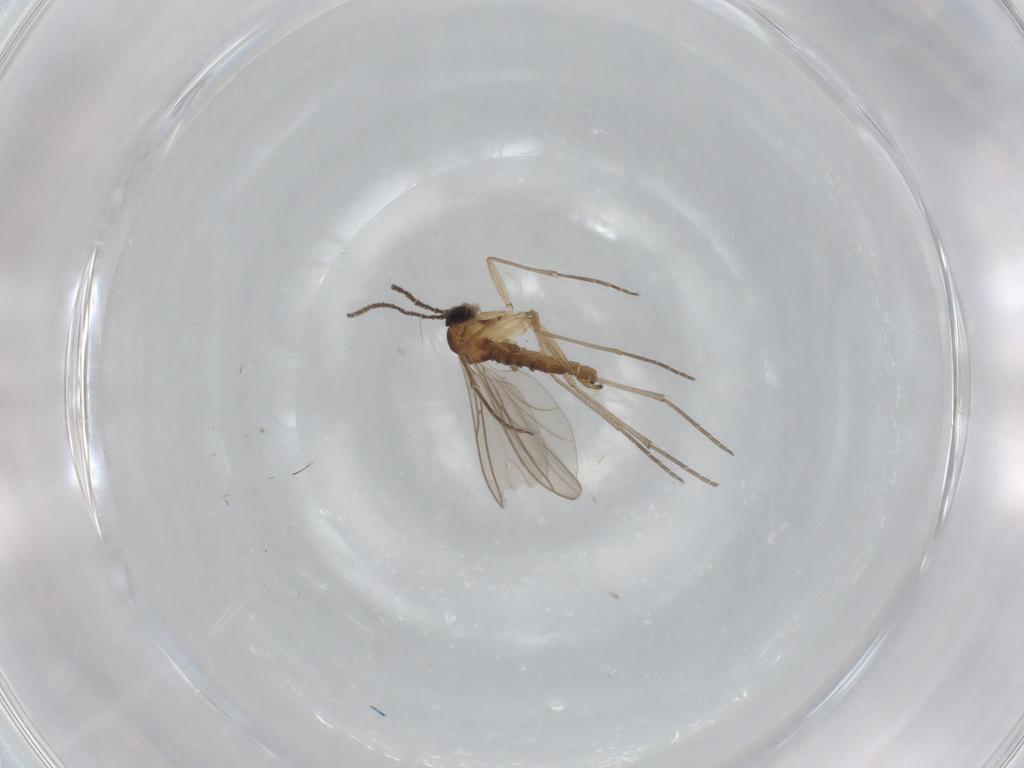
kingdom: Animalia
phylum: Arthropoda
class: Insecta
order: Diptera
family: Sciaridae
